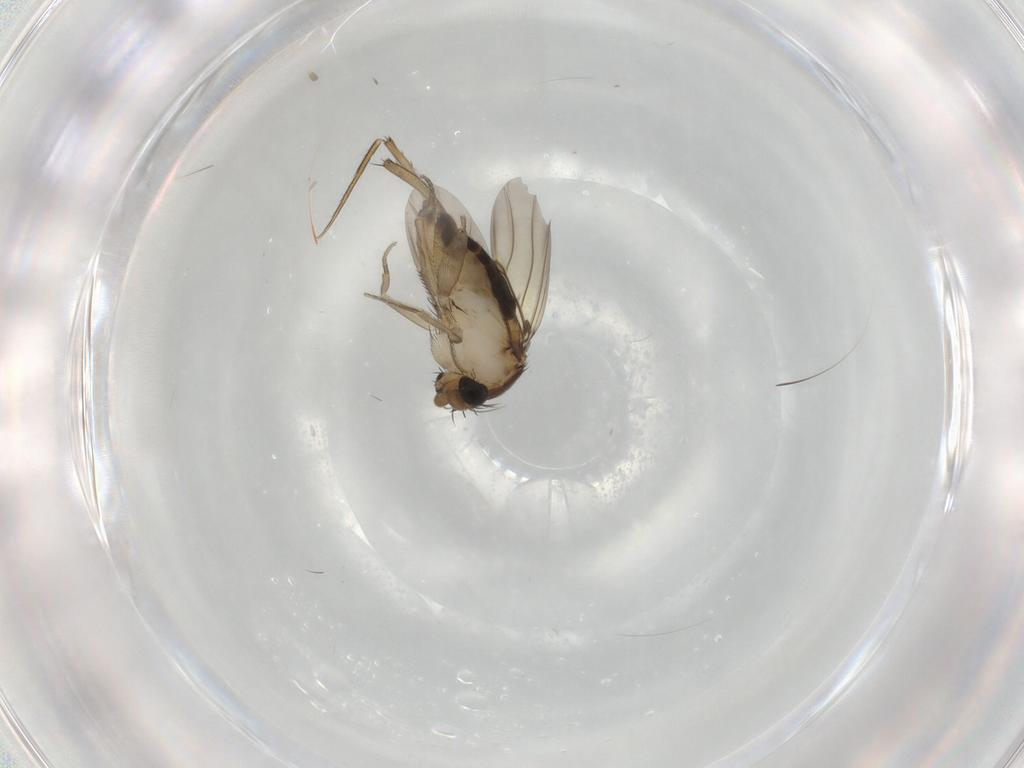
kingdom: Animalia
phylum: Arthropoda
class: Insecta
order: Diptera
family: Phoridae
